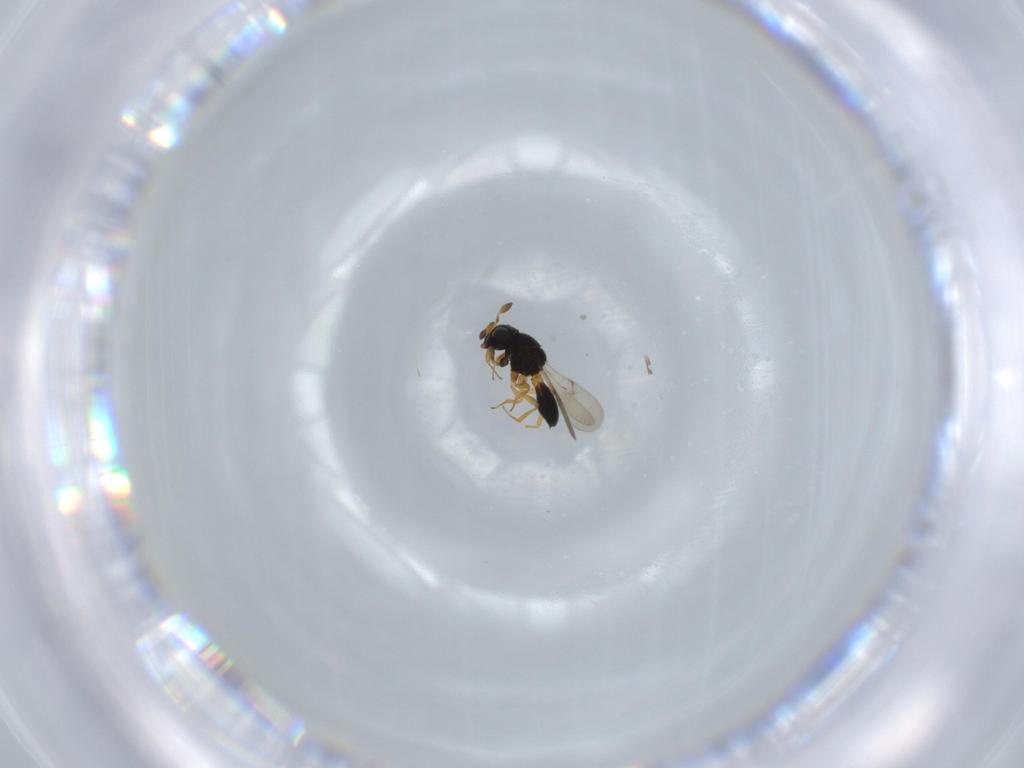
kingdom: Animalia
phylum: Arthropoda
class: Insecta
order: Hymenoptera
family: Scelionidae
